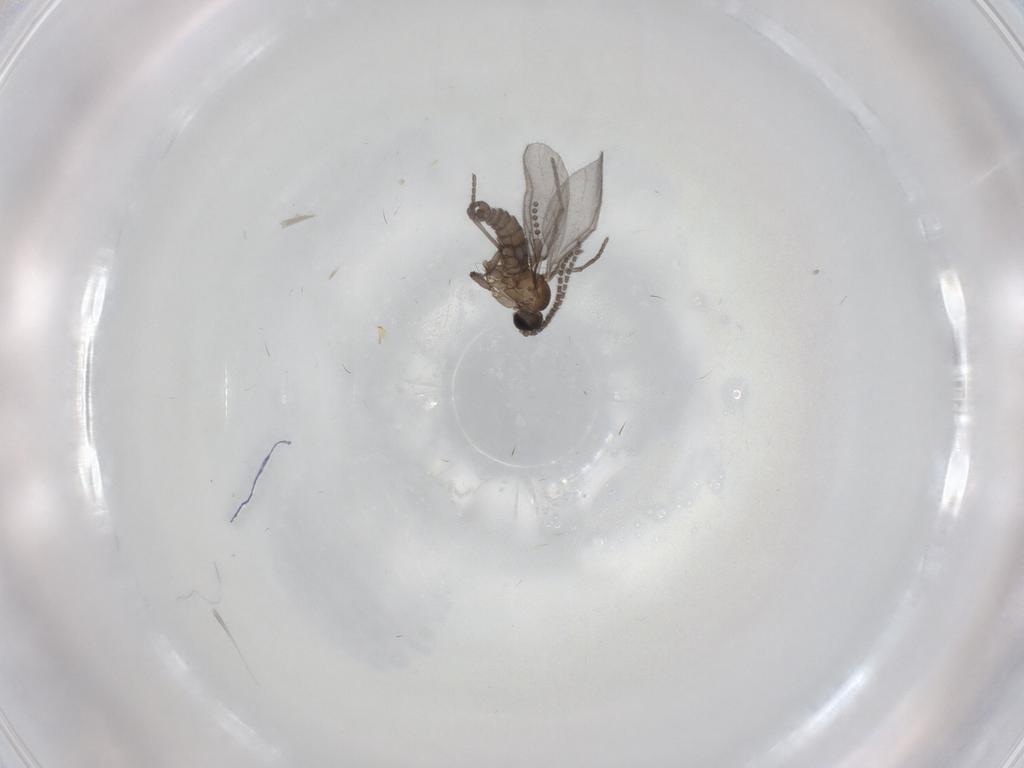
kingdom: Animalia
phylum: Arthropoda
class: Insecta
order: Diptera
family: Sciaridae
